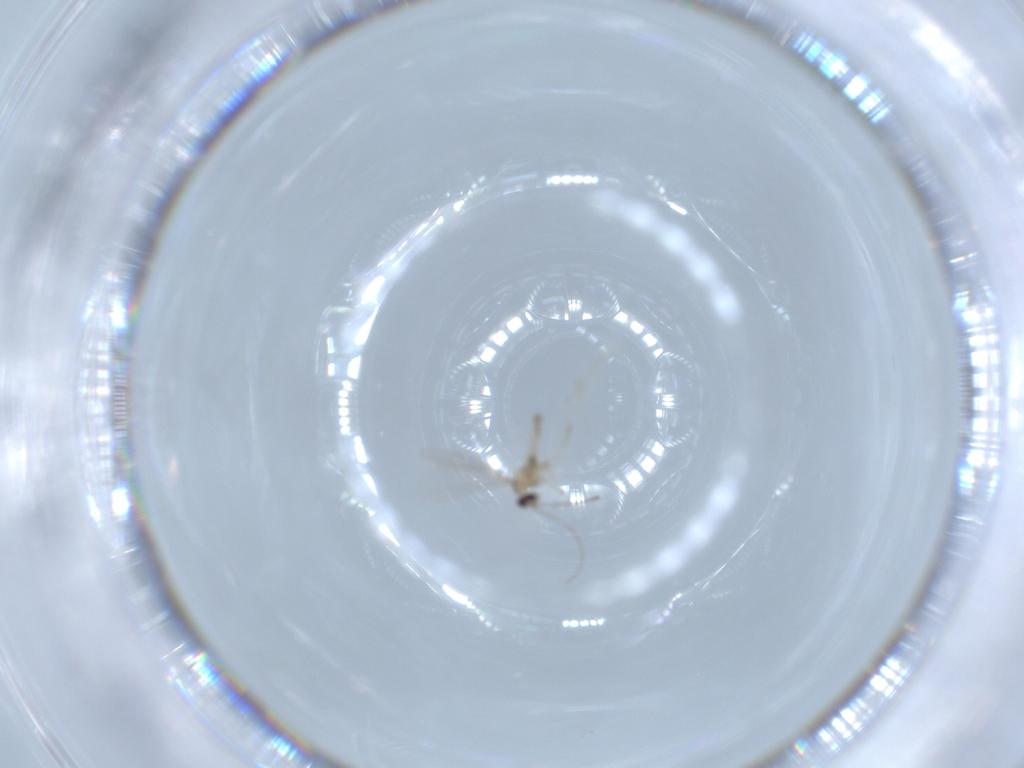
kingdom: Animalia
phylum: Arthropoda
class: Insecta
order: Diptera
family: Cecidomyiidae
